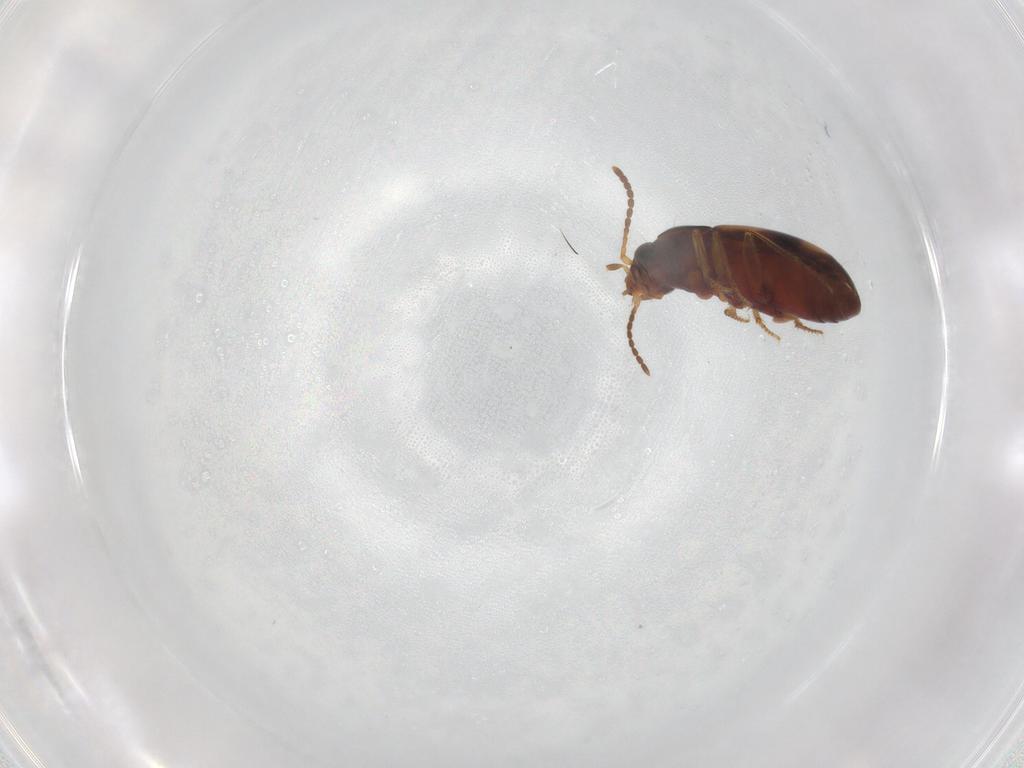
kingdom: Animalia
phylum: Arthropoda
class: Insecta
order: Coleoptera
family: Carabidae
